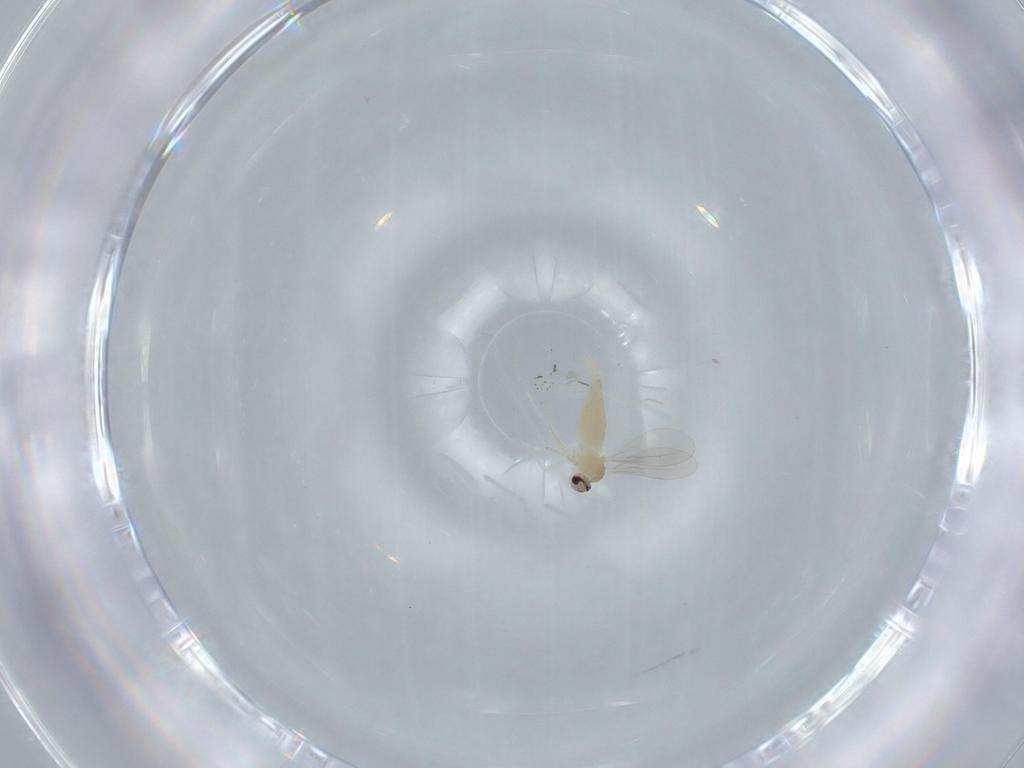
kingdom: Animalia
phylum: Arthropoda
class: Insecta
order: Diptera
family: Cecidomyiidae
